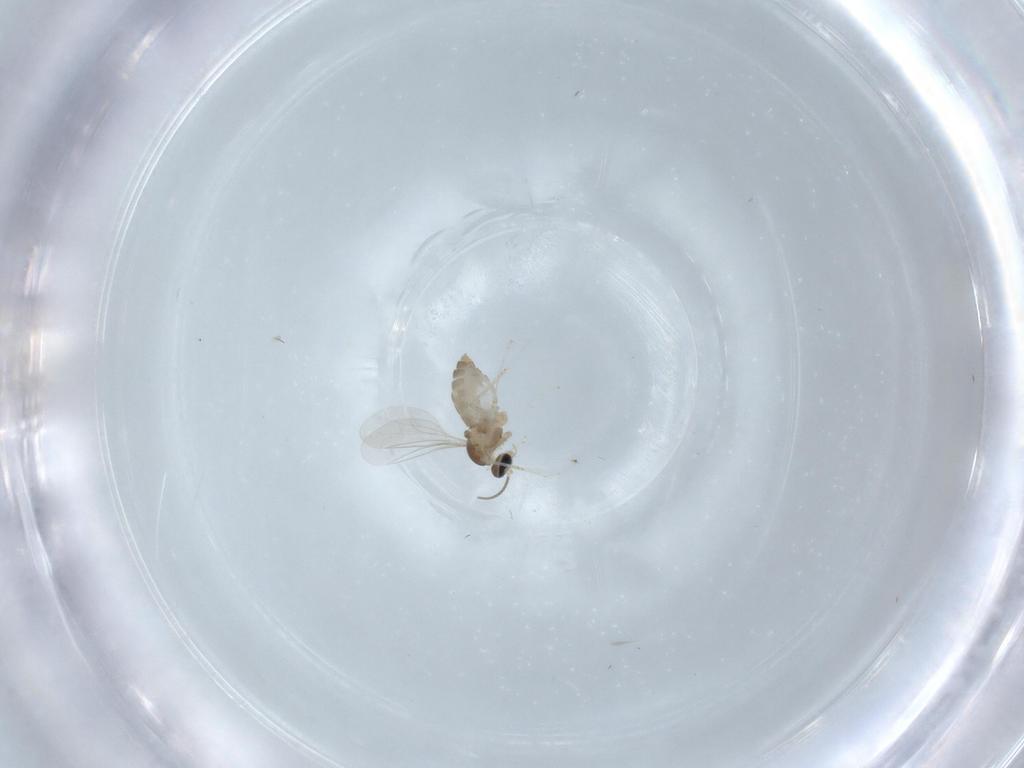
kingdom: Animalia
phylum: Arthropoda
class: Insecta
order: Diptera
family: Cecidomyiidae
